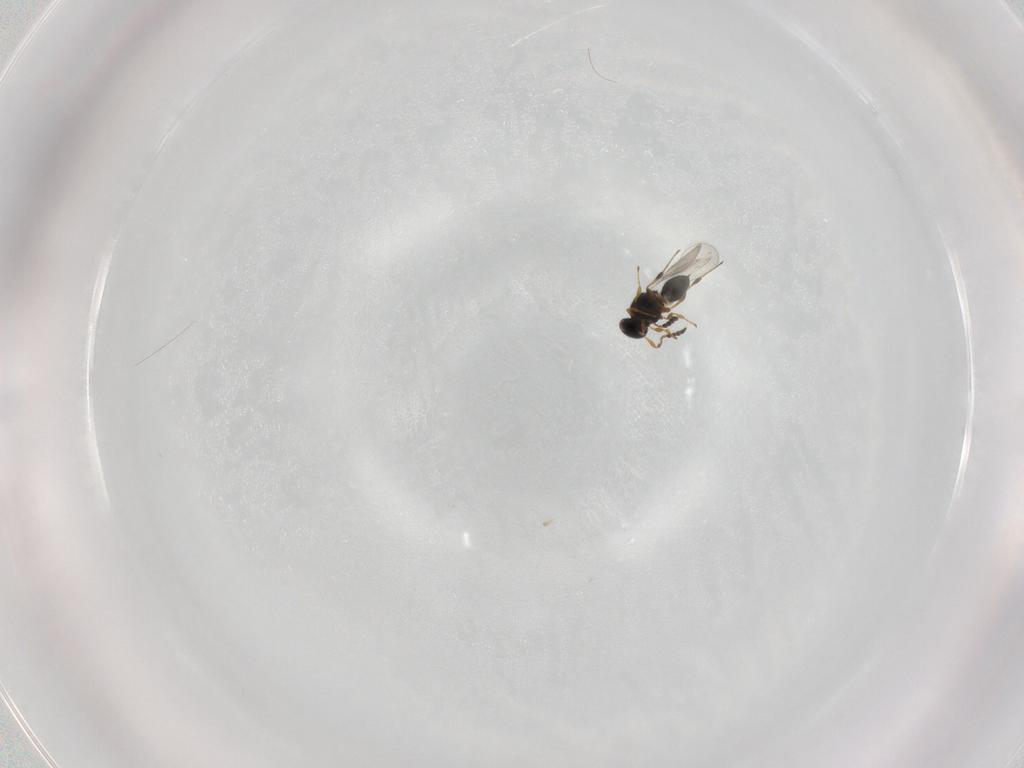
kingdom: Animalia
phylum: Arthropoda
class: Insecta
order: Hymenoptera
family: Platygastridae
